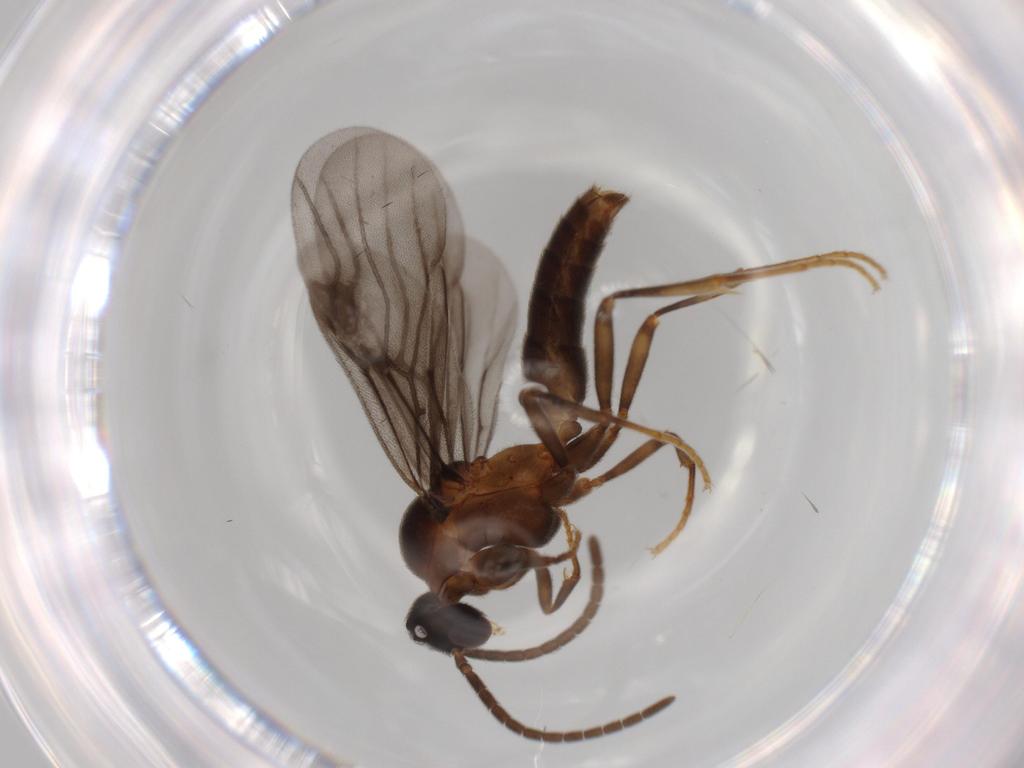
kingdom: Animalia
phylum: Arthropoda
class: Insecta
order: Hymenoptera
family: Formicidae
